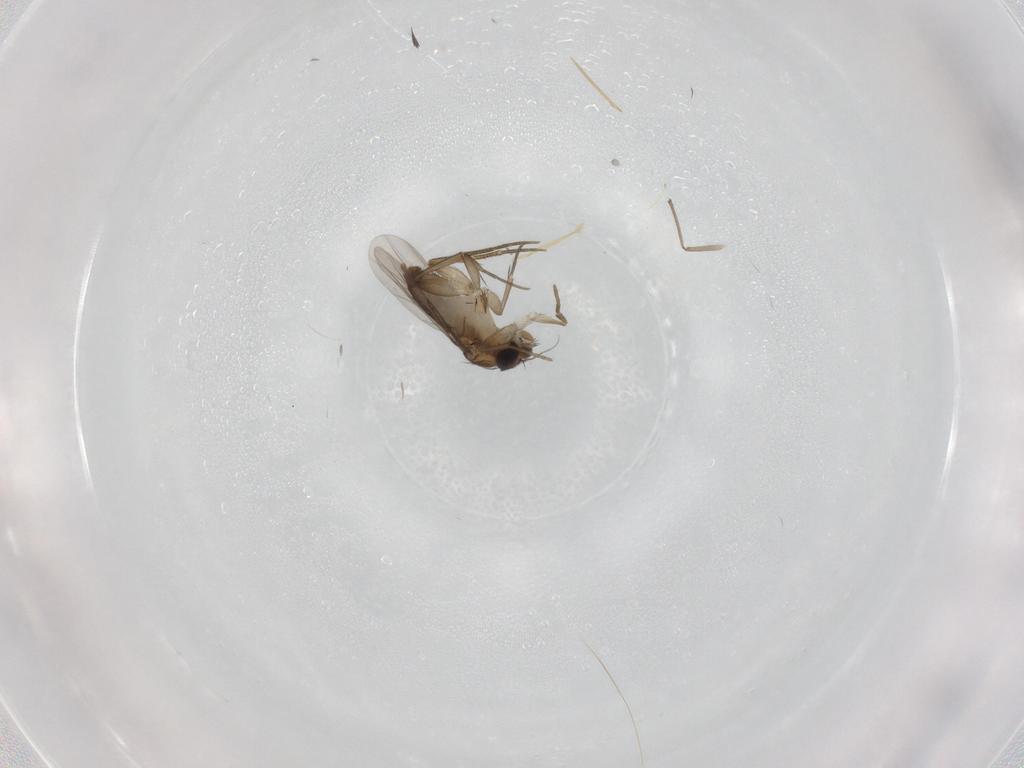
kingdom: Animalia
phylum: Arthropoda
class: Insecta
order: Diptera
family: Phoridae
